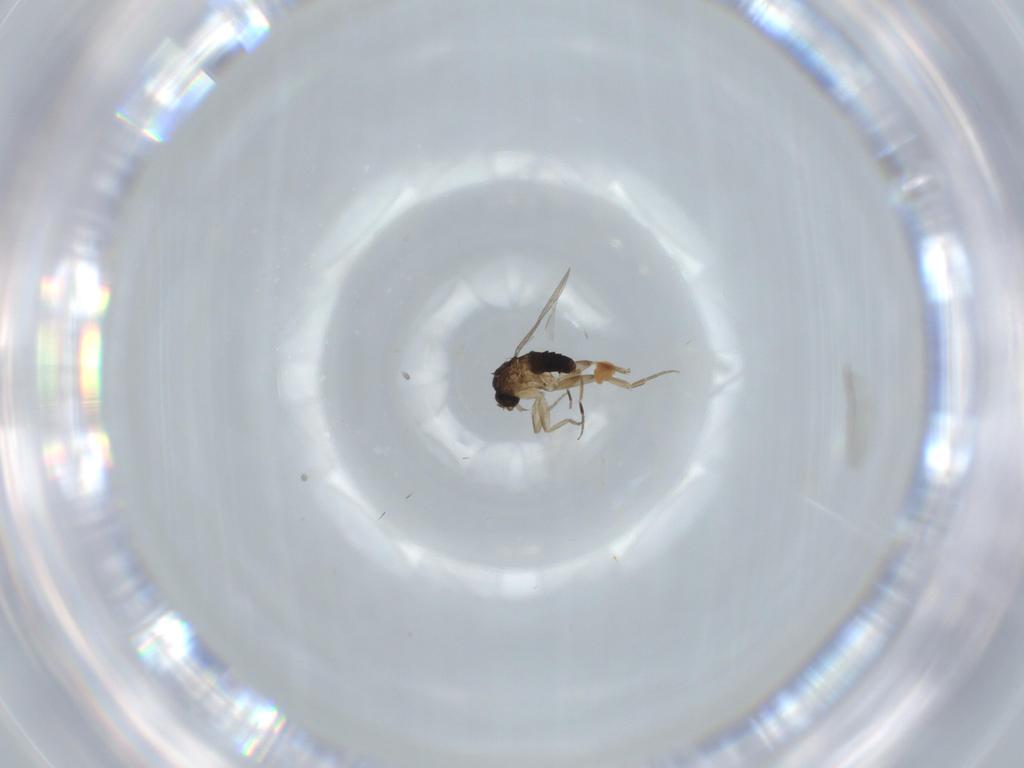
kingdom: Animalia
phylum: Arthropoda
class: Insecta
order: Diptera
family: Phoridae
